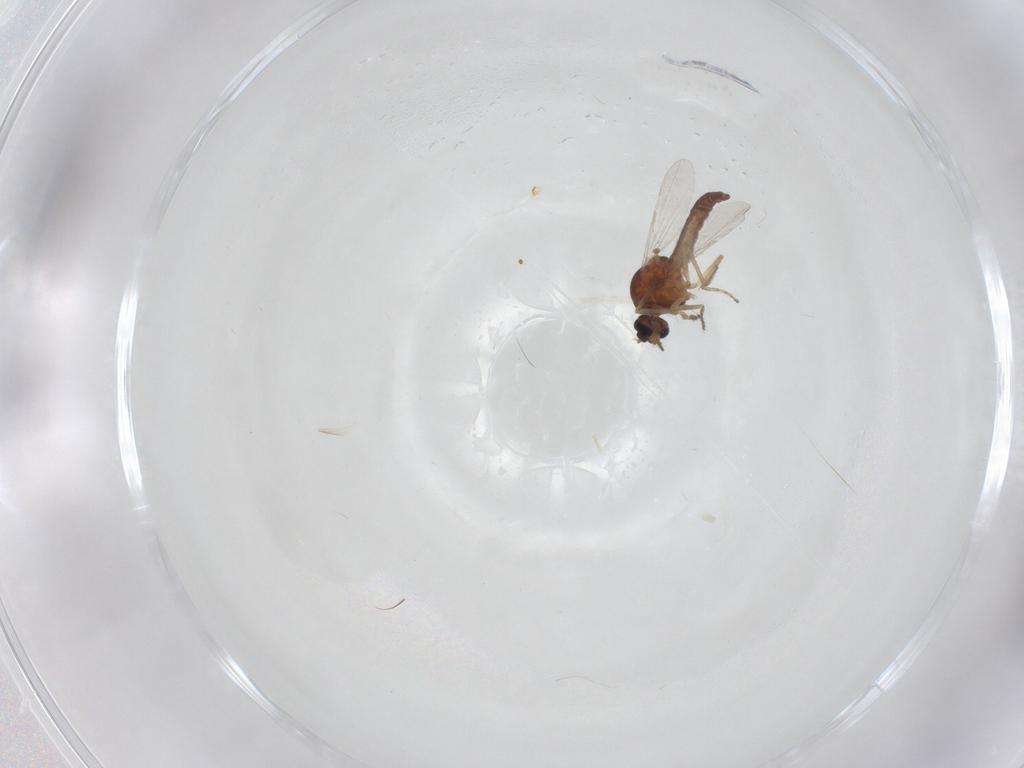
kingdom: Animalia
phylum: Arthropoda
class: Insecta
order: Diptera
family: Ceratopogonidae
